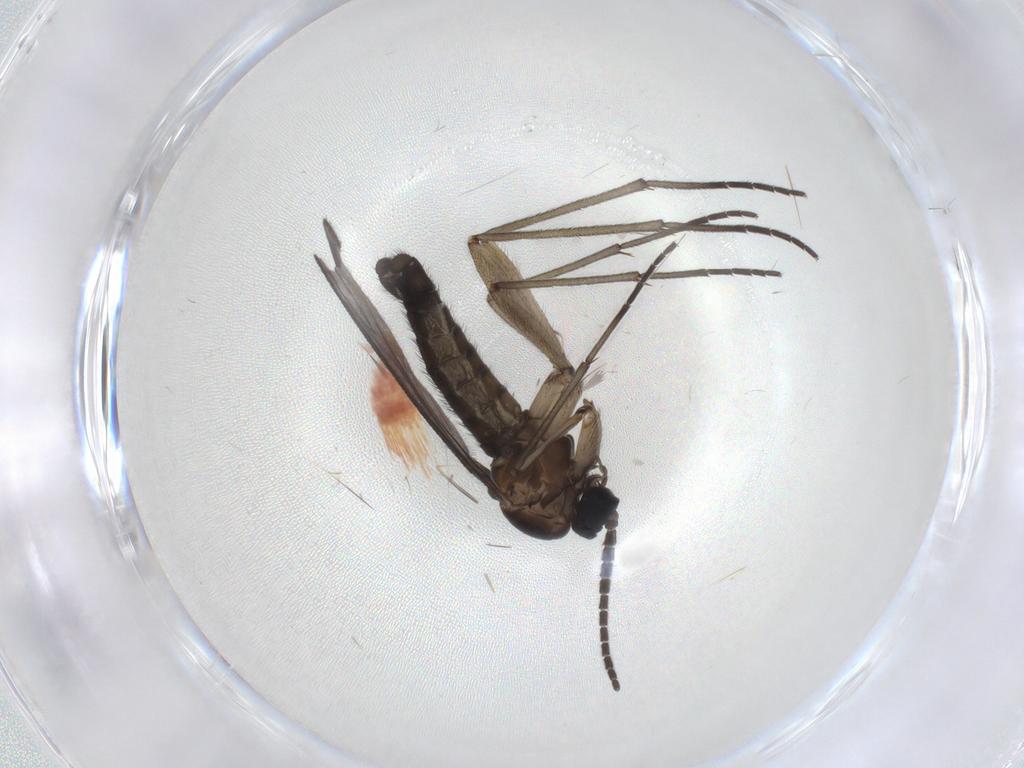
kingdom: Animalia
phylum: Arthropoda
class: Insecta
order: Diptera
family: Sciaridae
